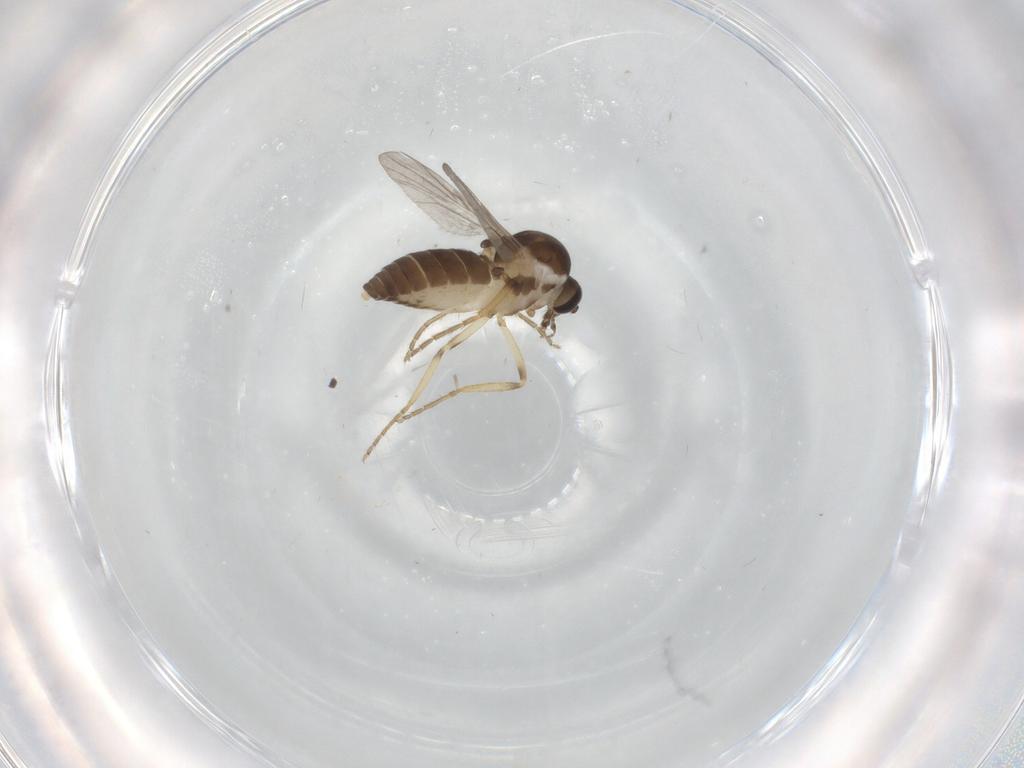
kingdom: Animalia
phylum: Arthropoda
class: Insecta
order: Diptera
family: Ceratopogonidae
